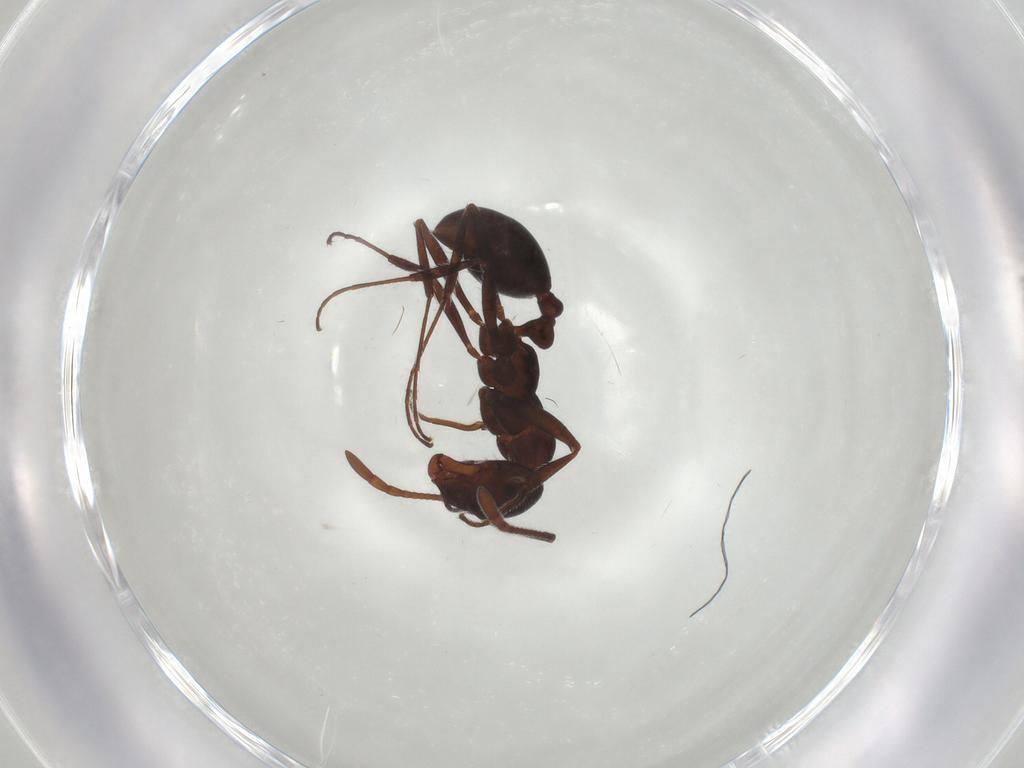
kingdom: Animalia
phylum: Arthropoda
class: Insecta
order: Hymenoptera
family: Formicidae
